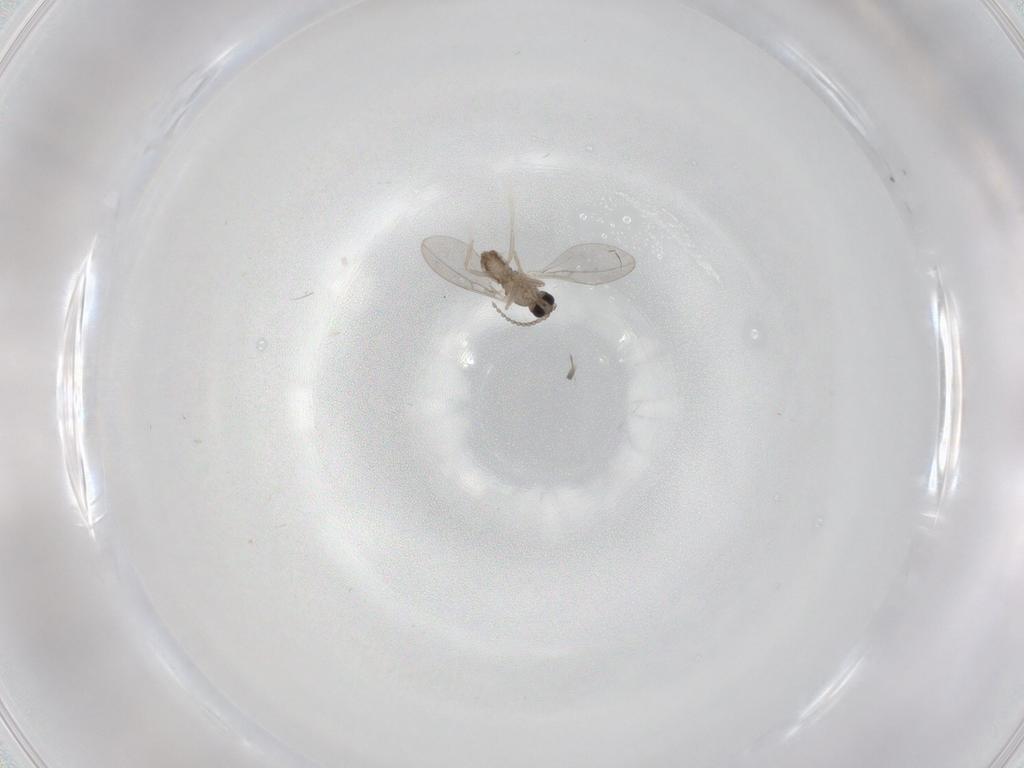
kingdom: Animalia
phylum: Arthropoda
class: Insecta
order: Diptera
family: Cecidomyiidae
